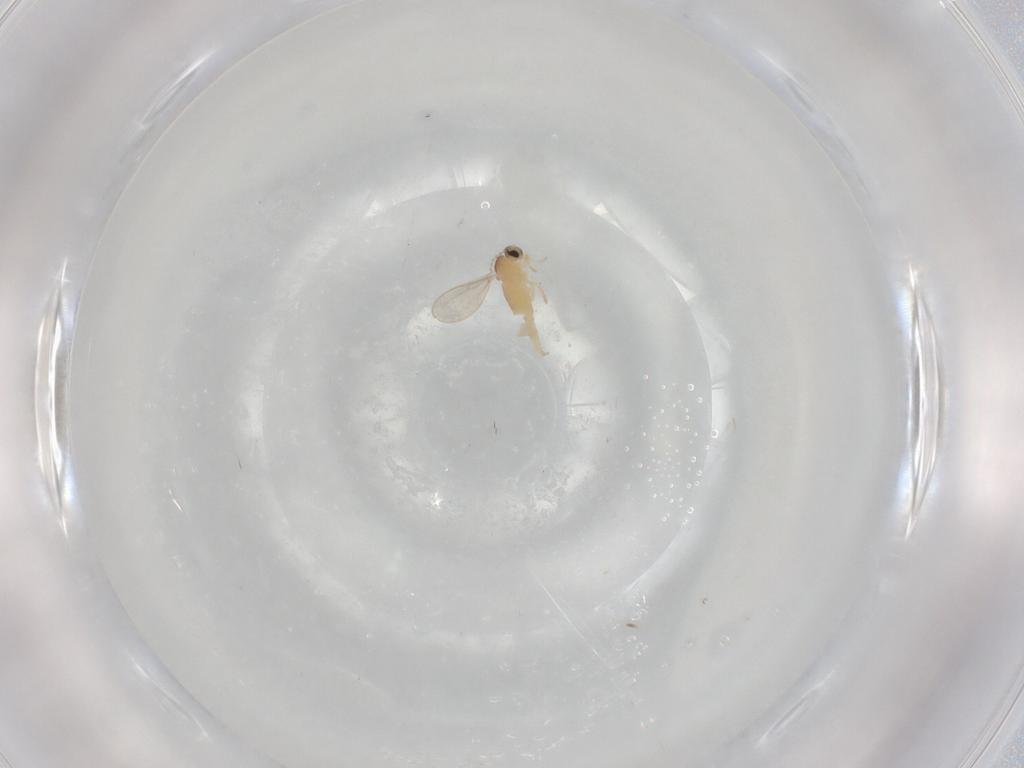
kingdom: Animalia
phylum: Arthropoda
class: Insecta
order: Diptera
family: Cecidomyiidae
